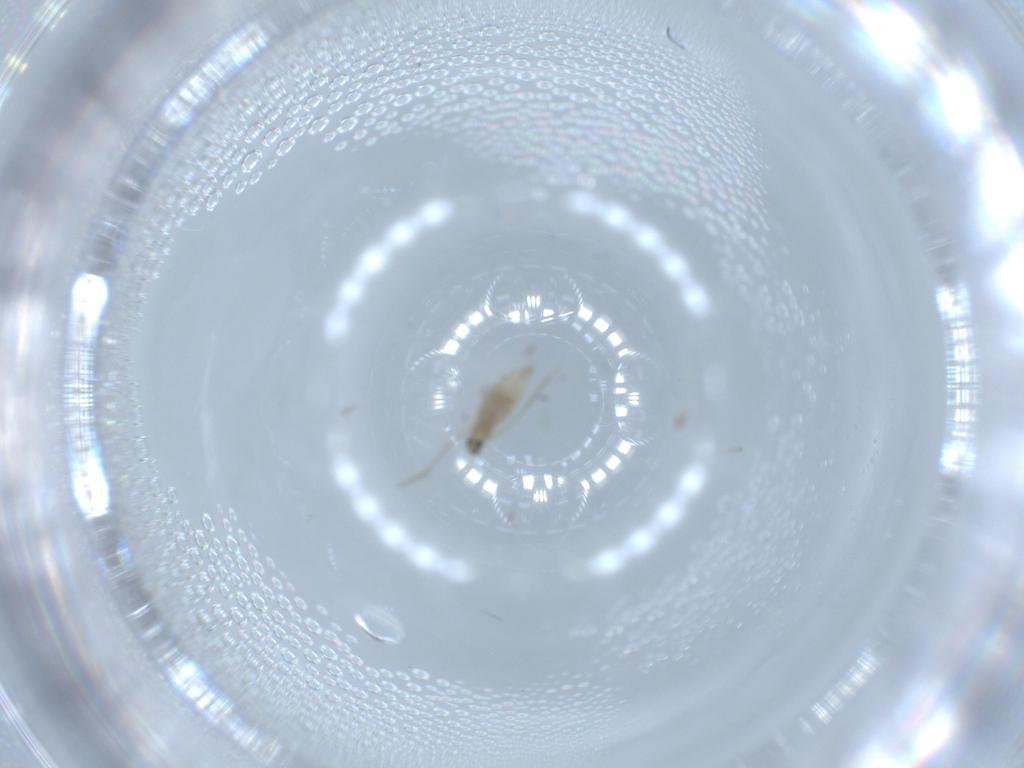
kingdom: Animalia
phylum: Arthropoda
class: Insecta
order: Diptera
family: Cecidomyiidae
